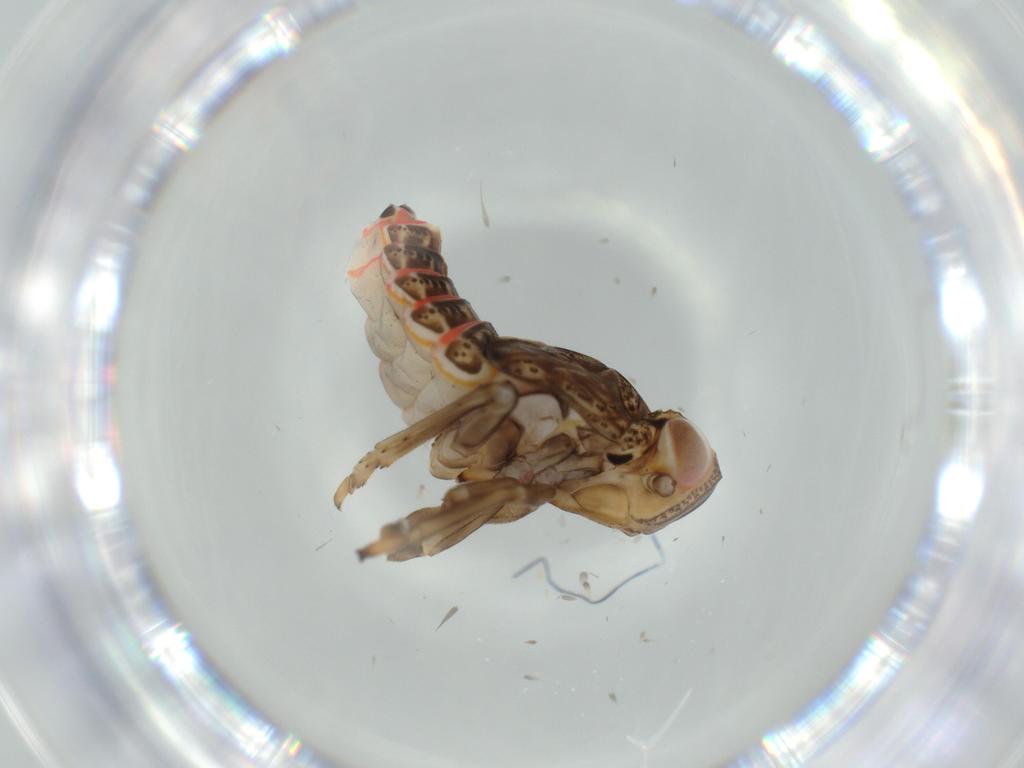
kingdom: Animalia
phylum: Arthropoda
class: Insecta
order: Hemiptera
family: Issidae
